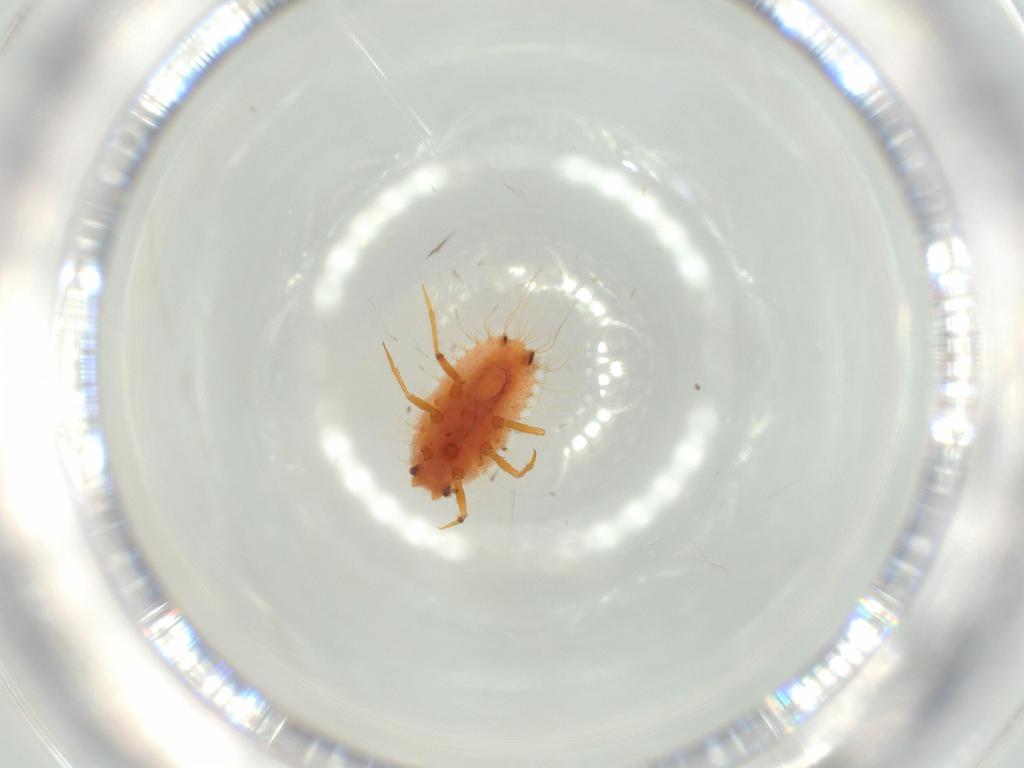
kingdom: Animalia
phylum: Arthropoda
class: Insecta
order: Hemiptera
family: Coccoidea_incertae_sedis
